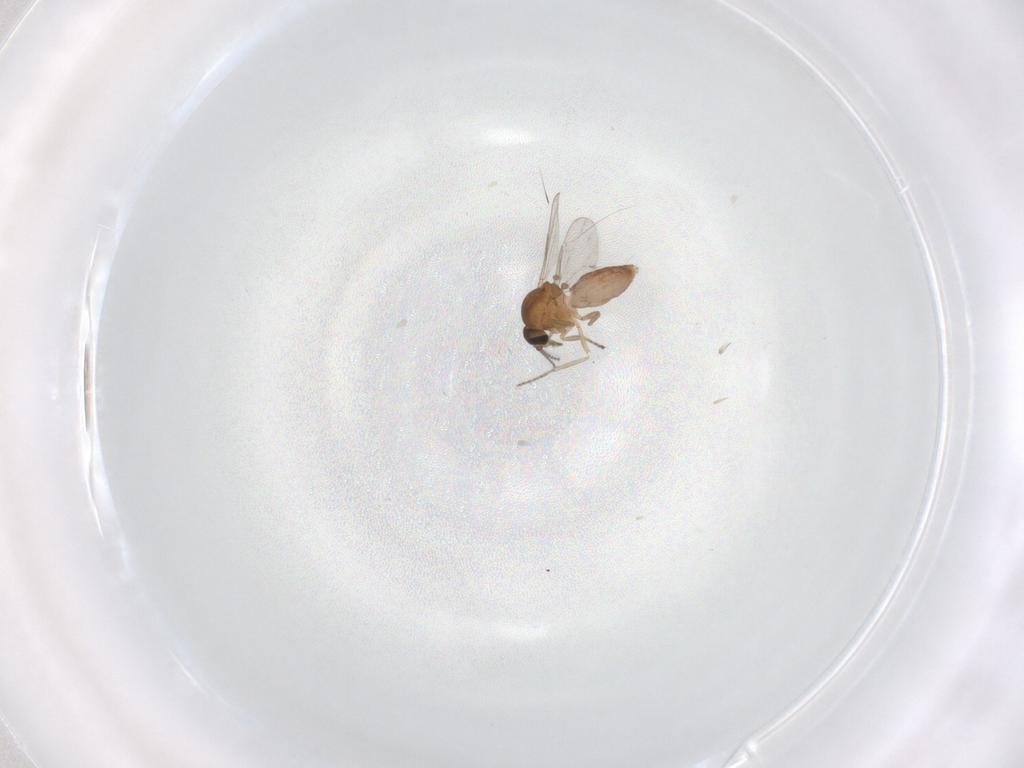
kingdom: Animalia
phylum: Arthropoda
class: Insecta
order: Diptera
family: Ceratopogonidae
